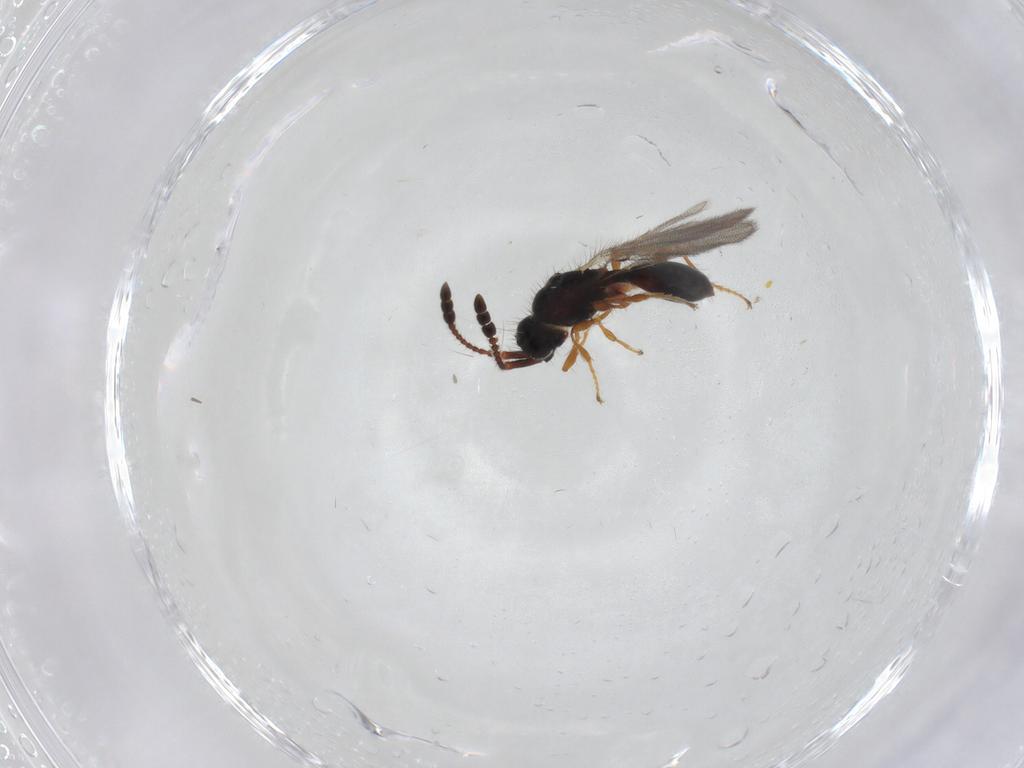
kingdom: Animalia
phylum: Arthropoda
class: Insecta
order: Hymenoptera
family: Diapriidae
